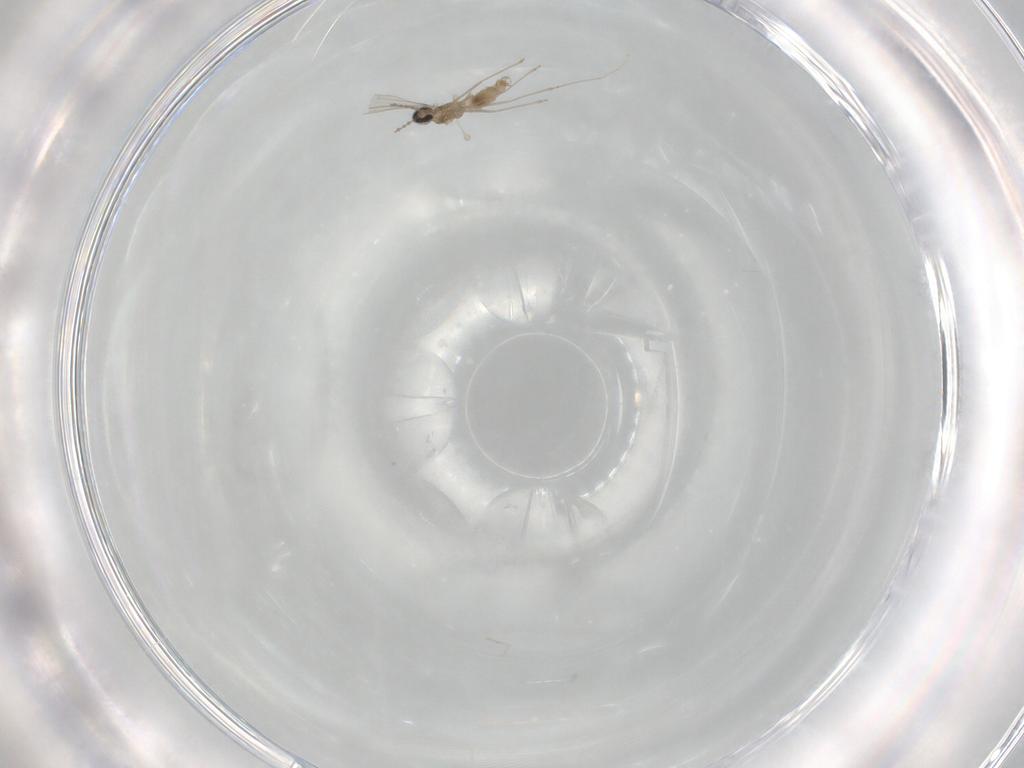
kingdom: Animalia
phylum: Arthropoda
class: Insecta
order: Diptera
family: Cecidomyiidae
